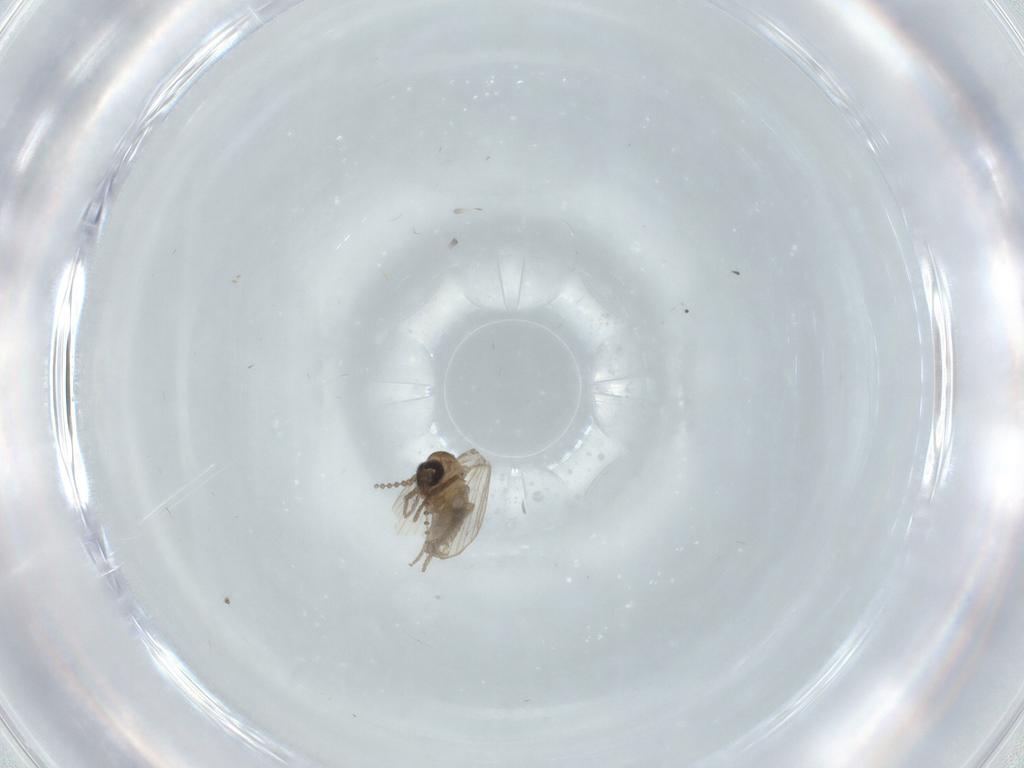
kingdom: Animalia
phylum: Arthropoda
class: Insecta
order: Diptera
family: Psychodidae
